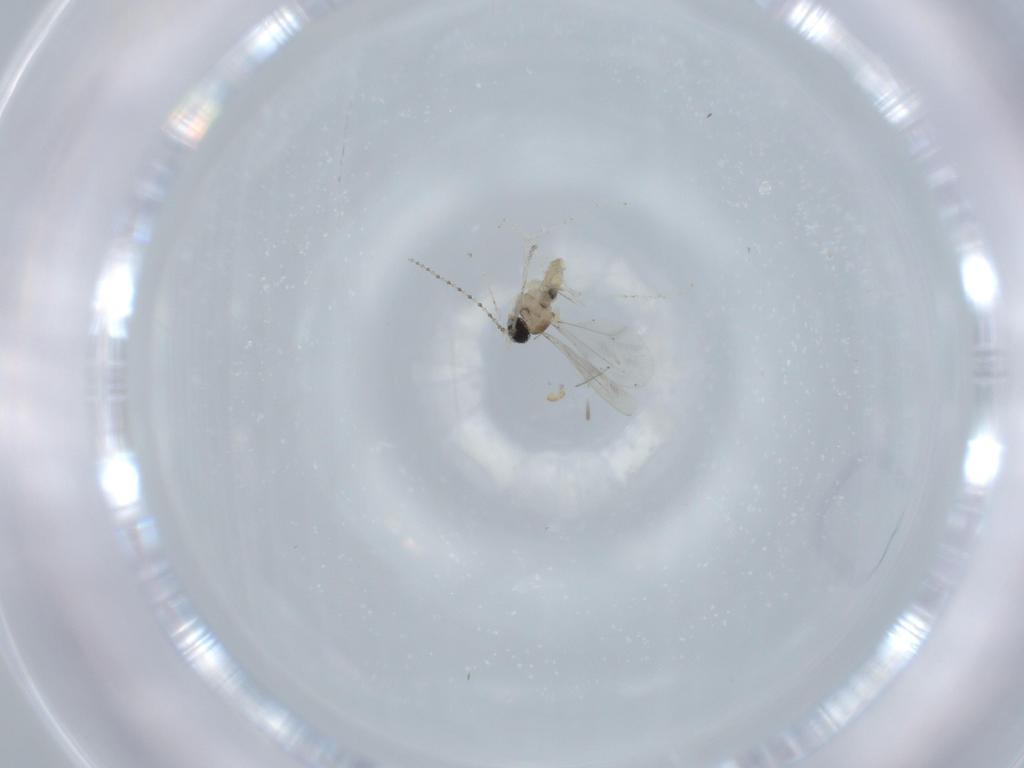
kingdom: Animalia
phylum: Arthropoda
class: Insecta
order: Diptera
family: Cecidomyiidae
